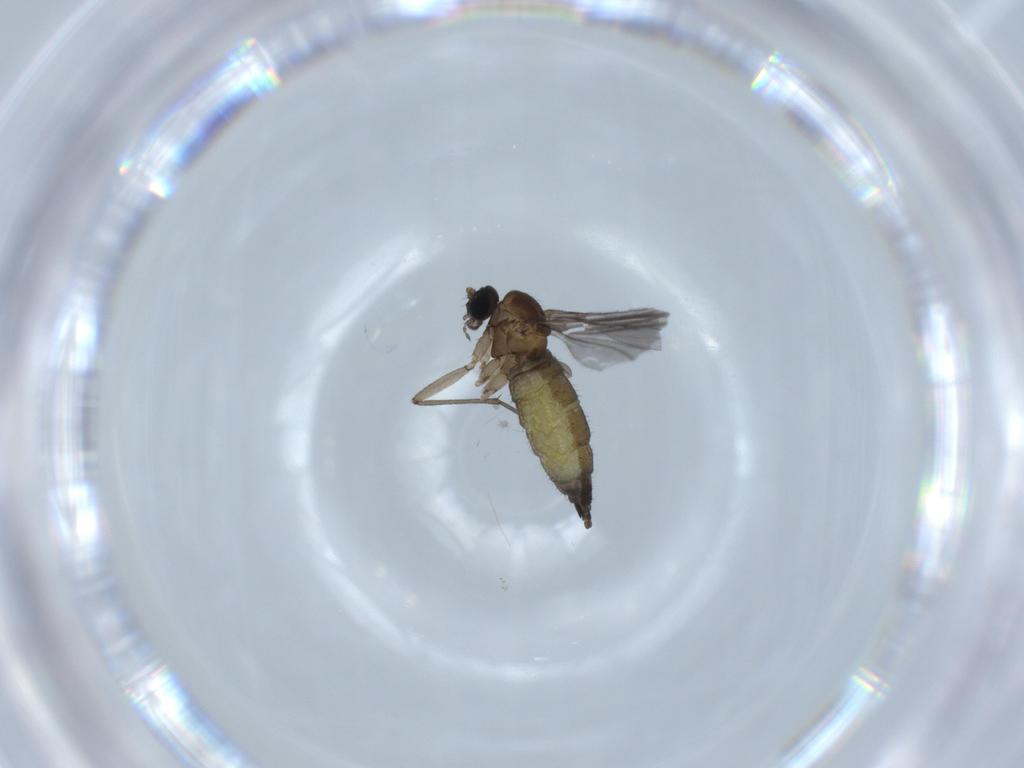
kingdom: Animalia
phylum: Arthropoda
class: Insecta
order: Diptera
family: Sciaridae
